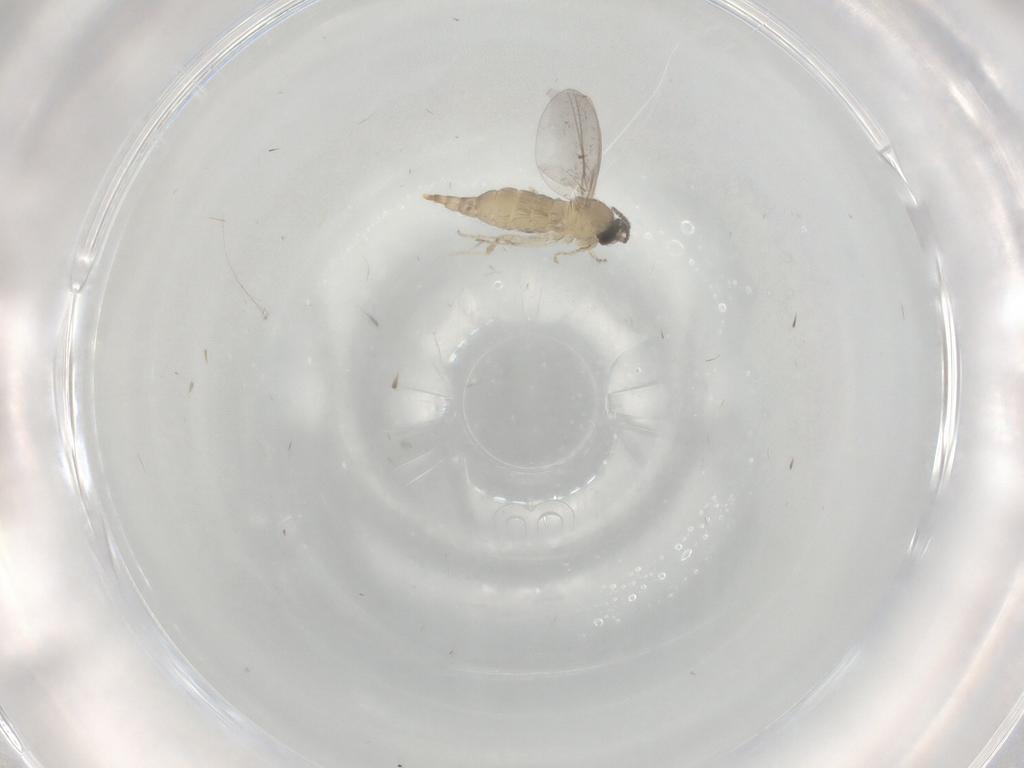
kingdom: Animalia
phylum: Arthropoda
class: Insecta
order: Diptera
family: Cecidomyiidae
